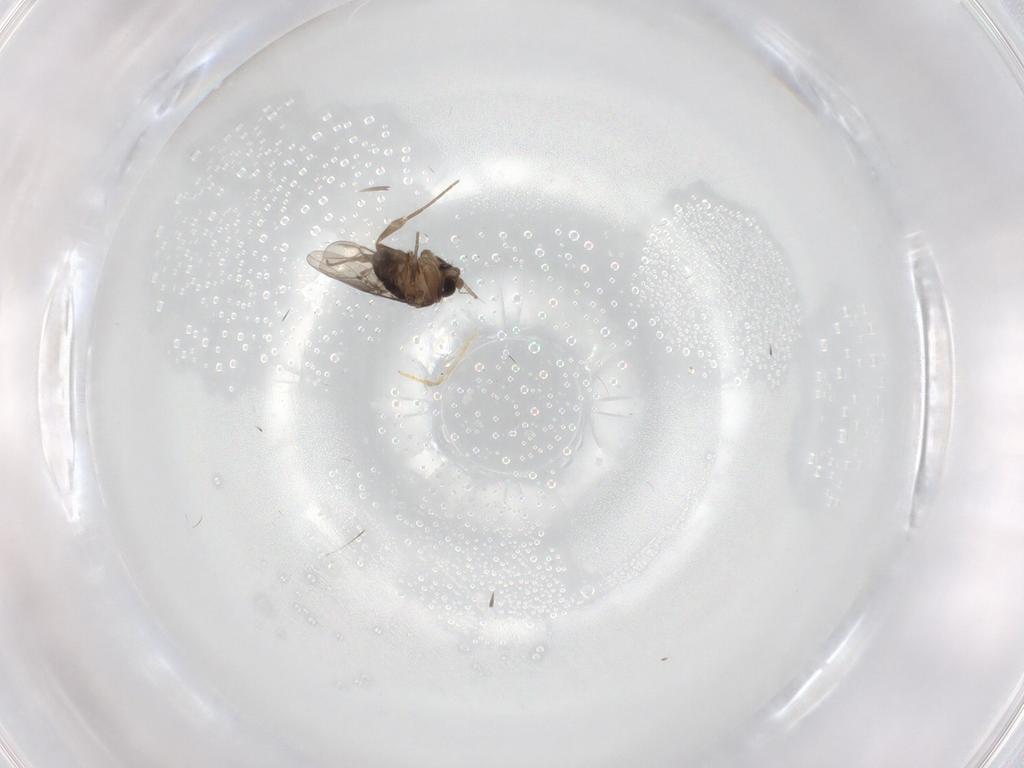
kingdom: Animalia
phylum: Arthropoda
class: Insecta
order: Diptera
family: Phoridae
